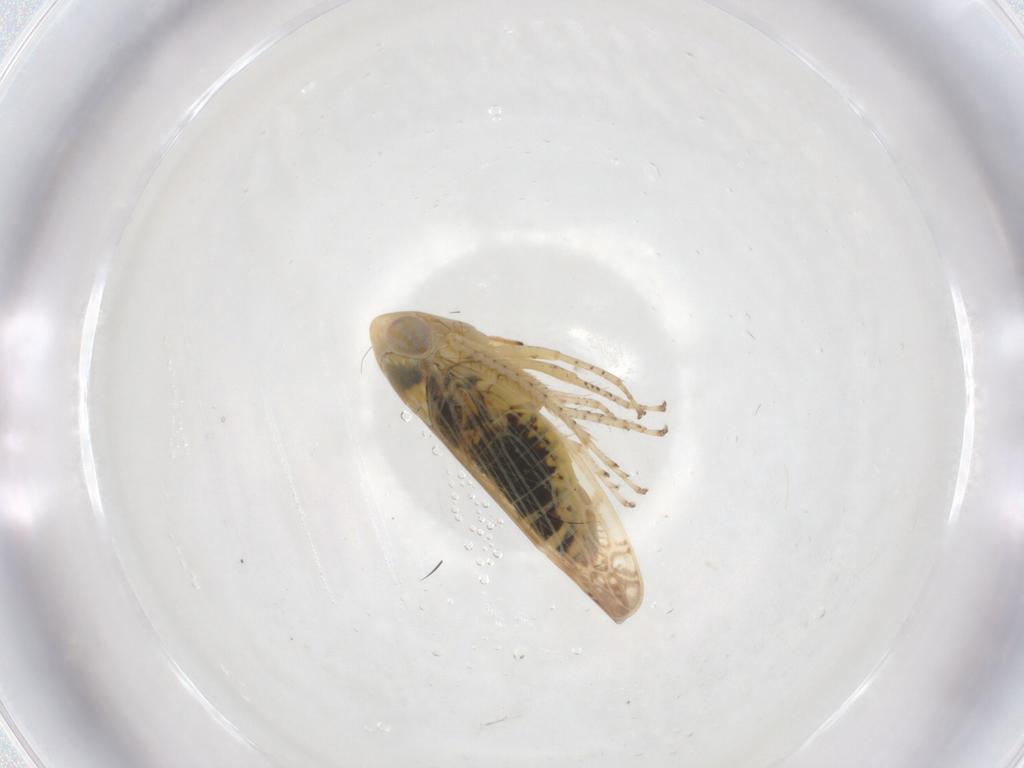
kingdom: Animalia
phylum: Arthropoda
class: Insecta
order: Hemiptera
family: Cicadellidae
